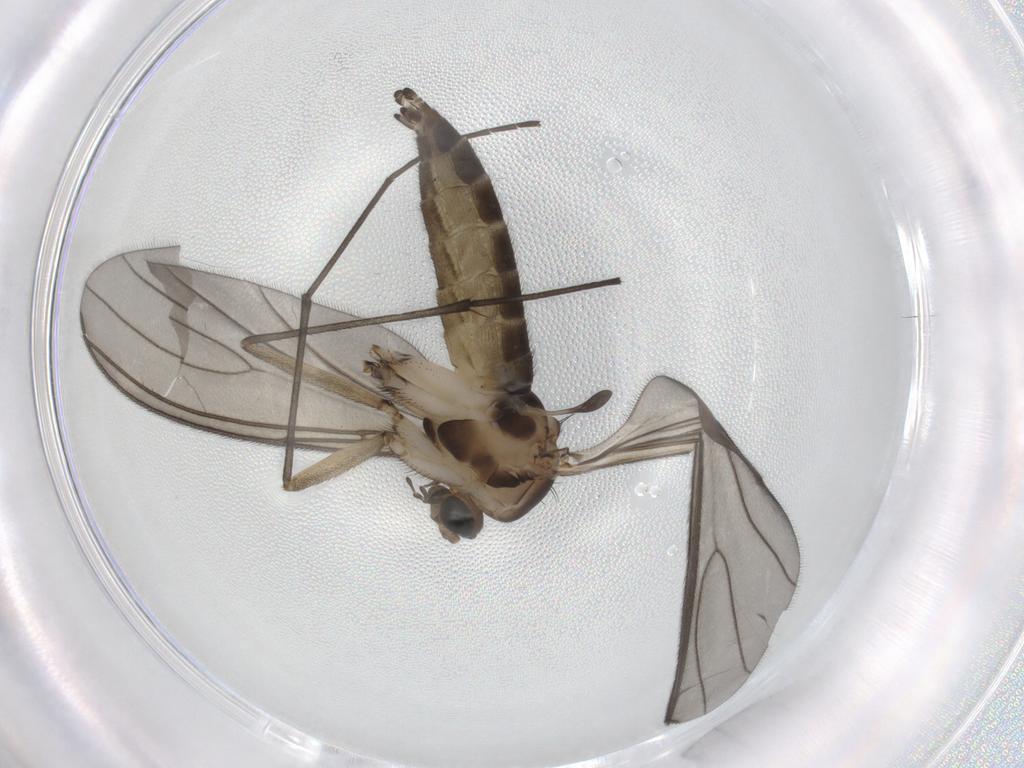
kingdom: Animalia
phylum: Arthropoda
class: Insecta
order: Diptera
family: Sciaridae
